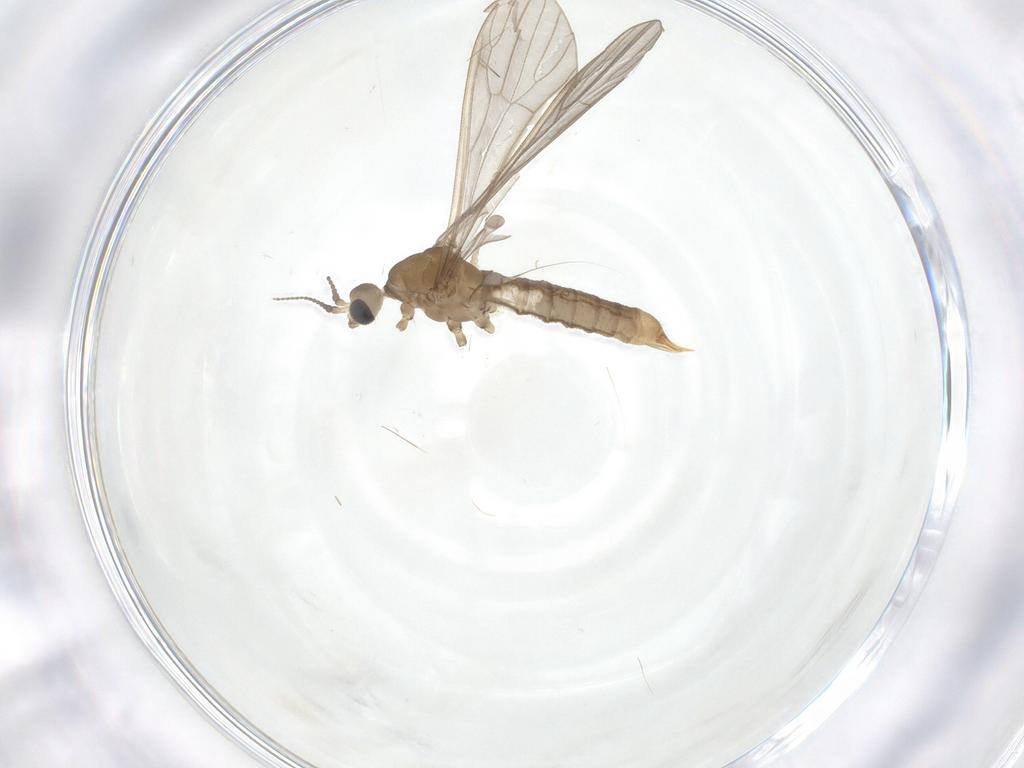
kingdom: Animalia
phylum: Arthropoda
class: Insecta
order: Diptera
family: Limoniidae
